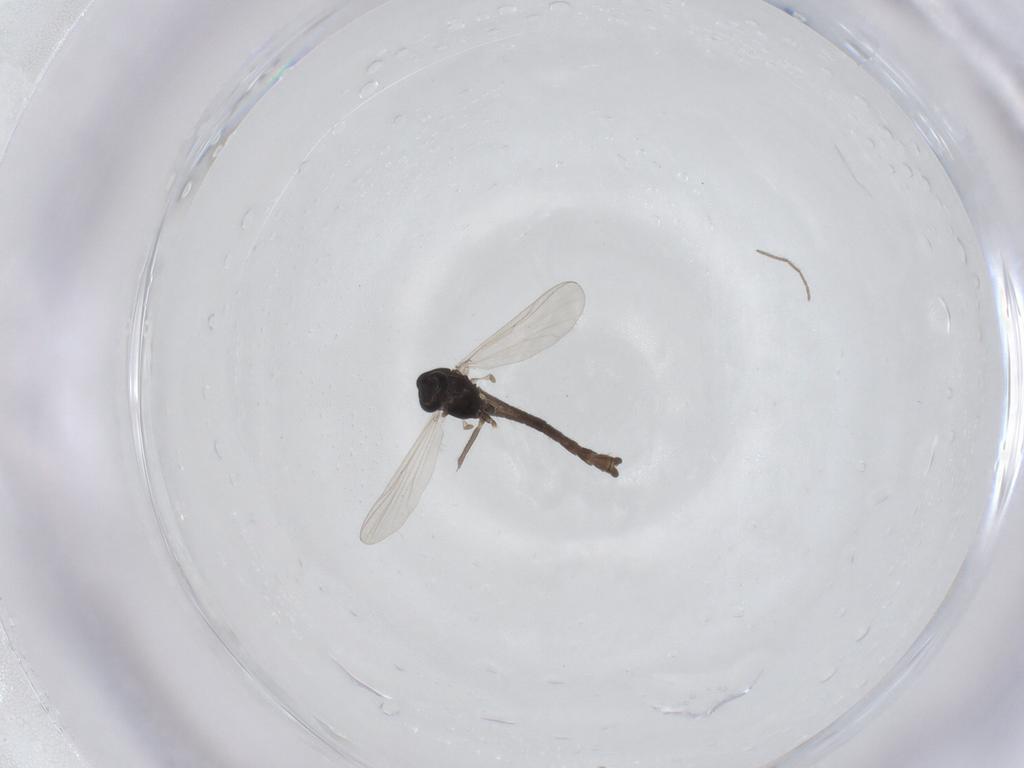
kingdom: Animalia
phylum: Arthropoda
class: Insecta
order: Diptera
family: Chironomidae
